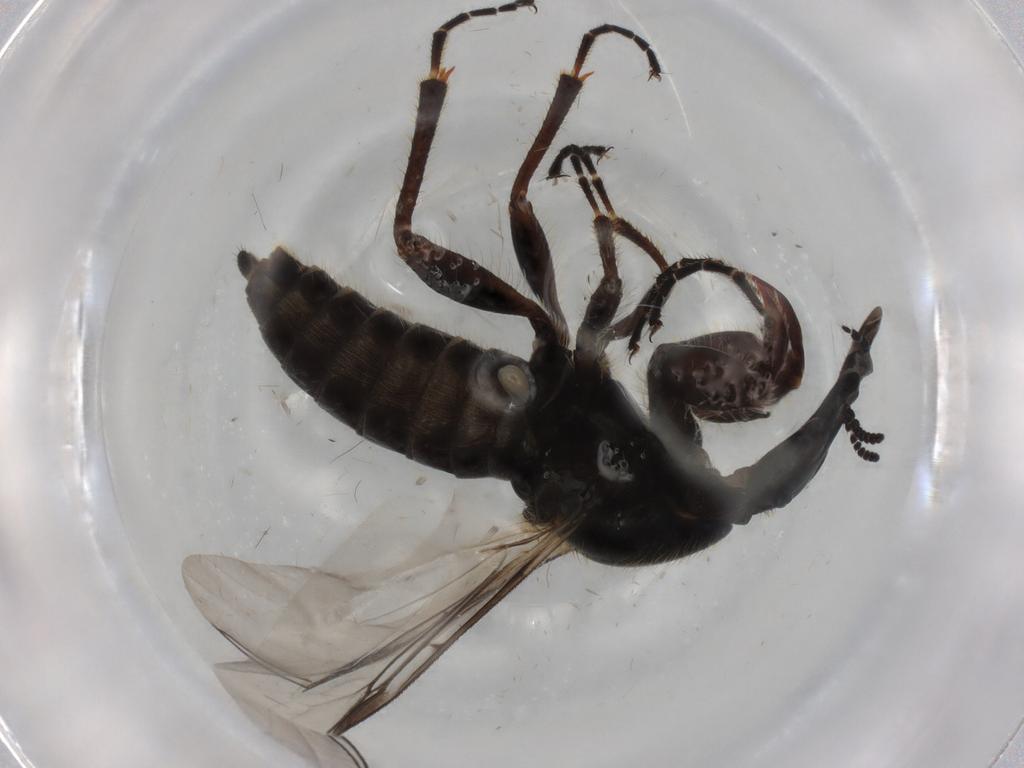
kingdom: Animalia
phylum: Arthropoda
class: Insecta
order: Diptera
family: Bibionidae
